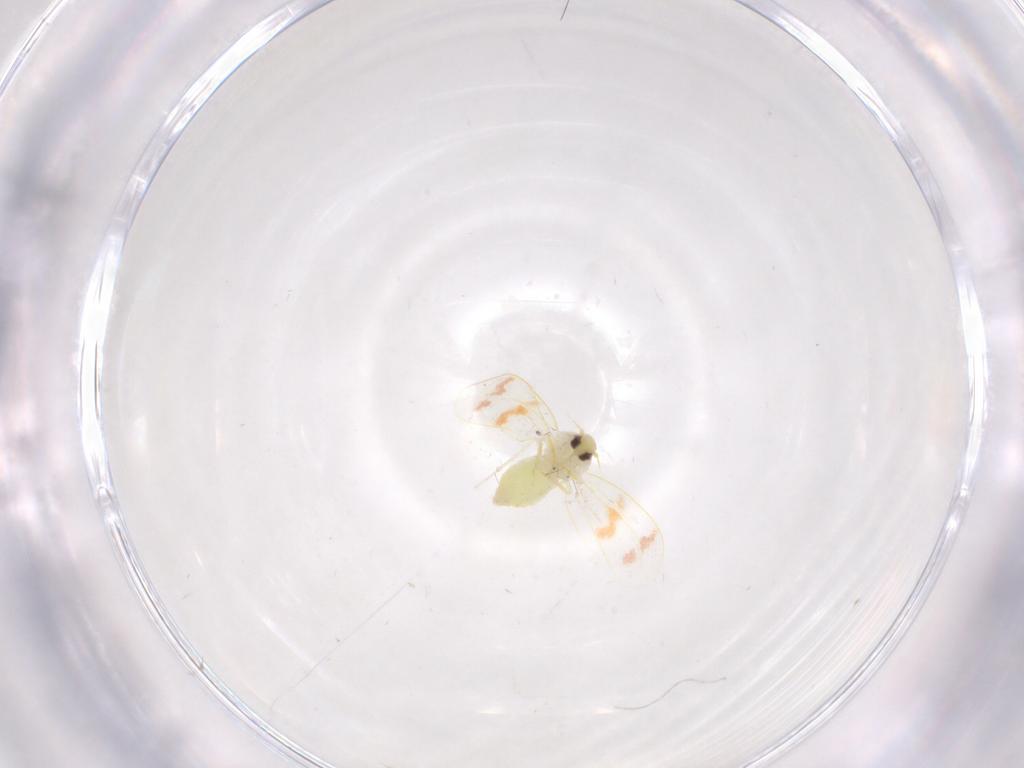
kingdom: Animalia
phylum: Arthropoda
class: Insecta
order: Hemiptera
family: Aleyrodidae
